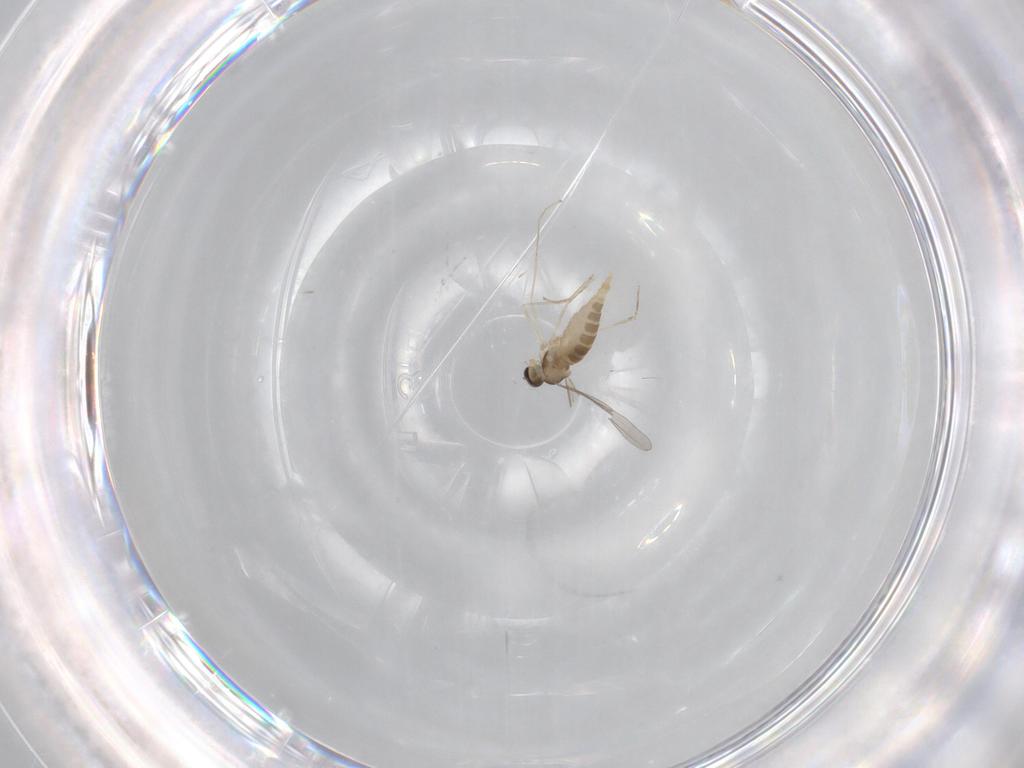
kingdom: Animalia
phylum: Arthropoda
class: Insecta
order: Diptera
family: Cecidomyiidae
